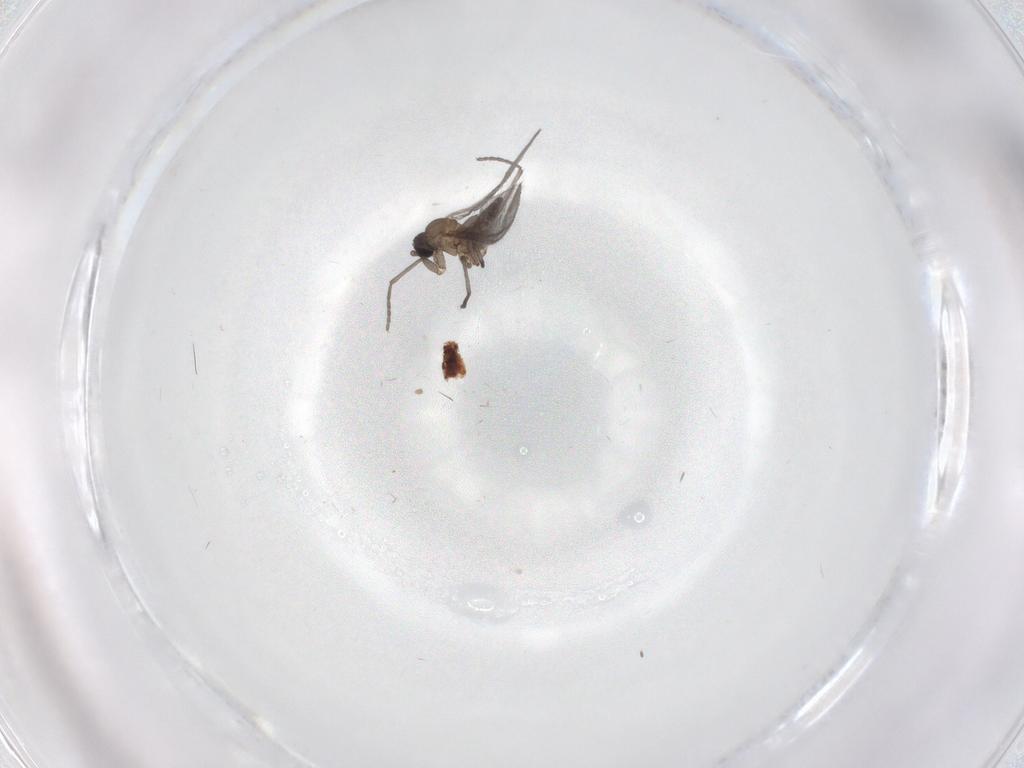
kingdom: Animalia
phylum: Arthropoda
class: Insecta
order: Diptera
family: Sciaridae
